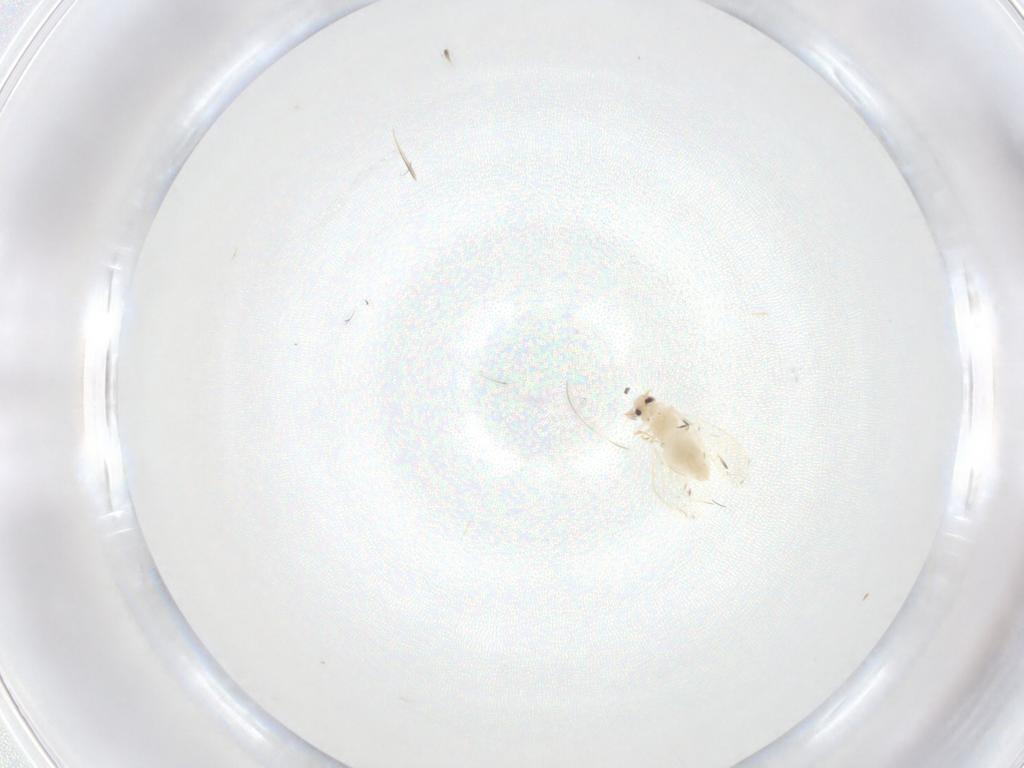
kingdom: Animalia
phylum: Arthropoda
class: Insecta
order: Hemiptera
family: Aleyrodidae
